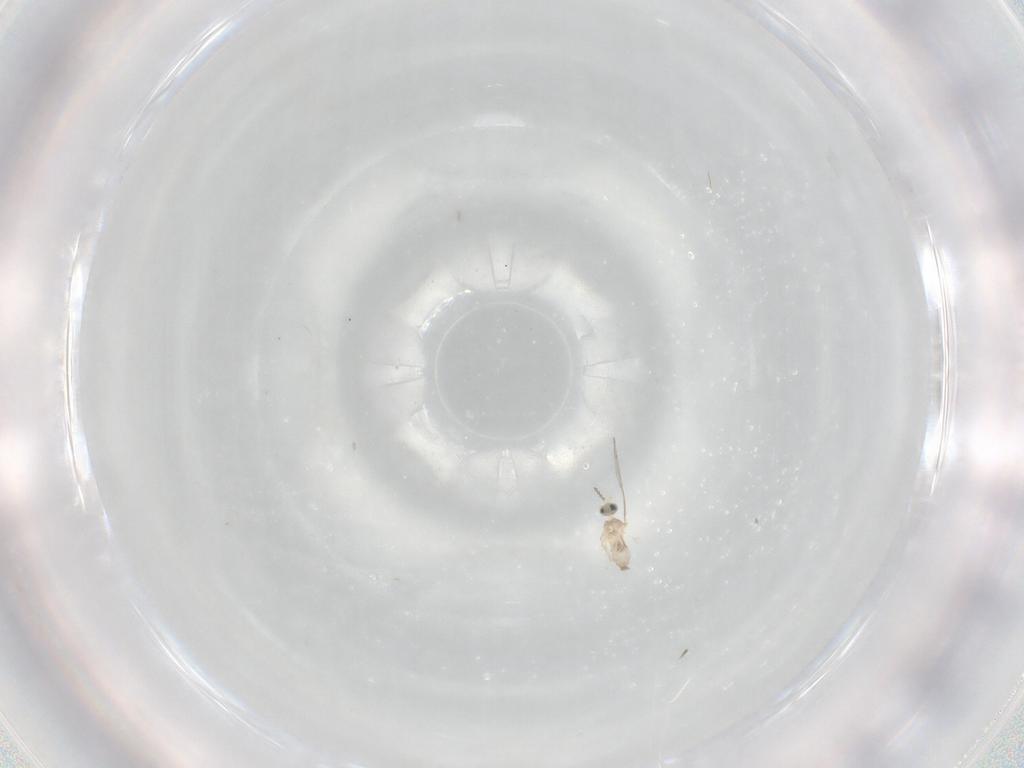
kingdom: Animalia
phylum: Arthropoda
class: Insecta
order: Diptera
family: Cecidomyiidae
